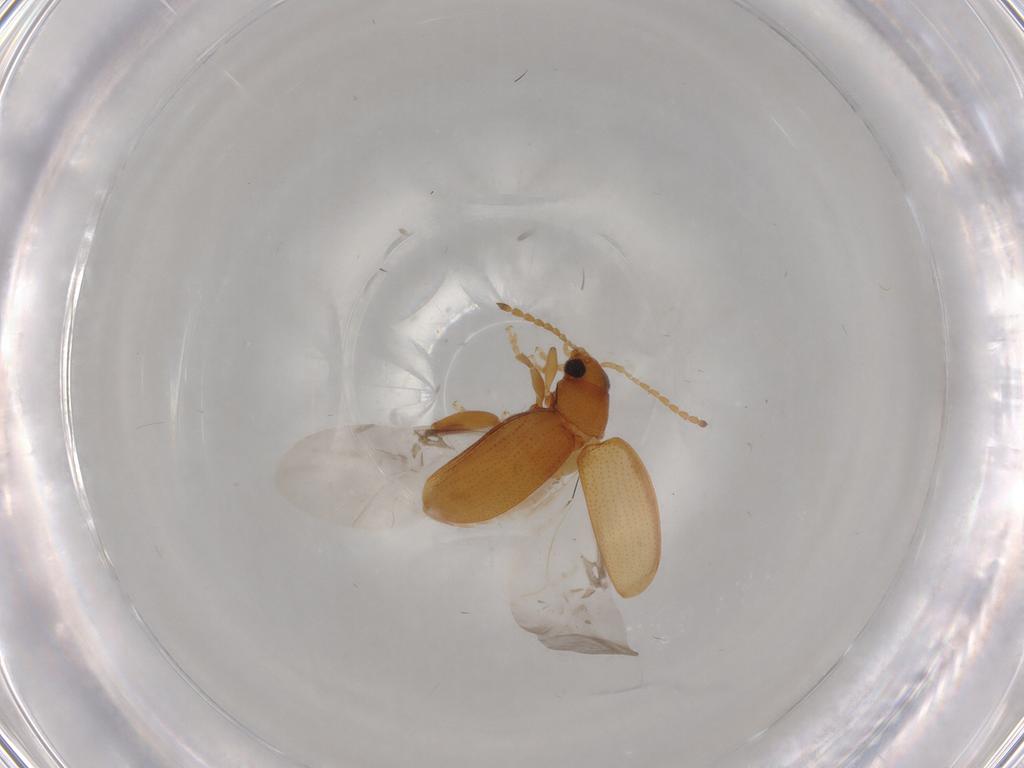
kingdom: Animalia
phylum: Arthropoda
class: Insecta
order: Coleoptera
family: Chrysomelidae
